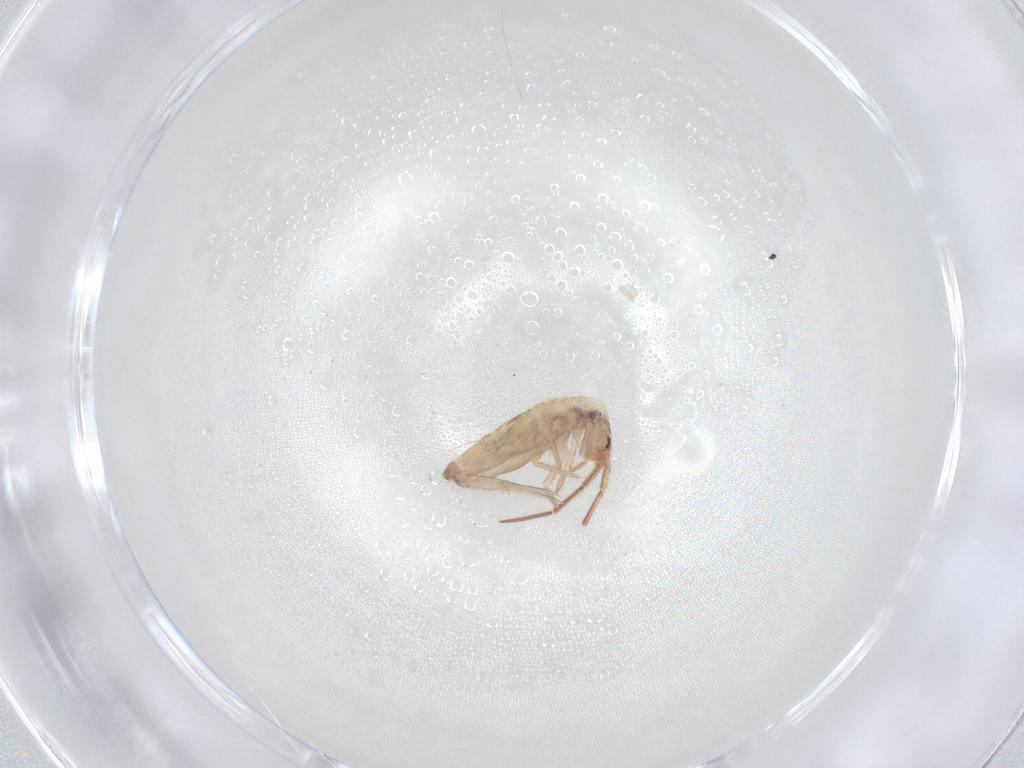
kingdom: Animalia
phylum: Arthropoda
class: Collembola
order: Entomobryomorpha
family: Entomobryidae
